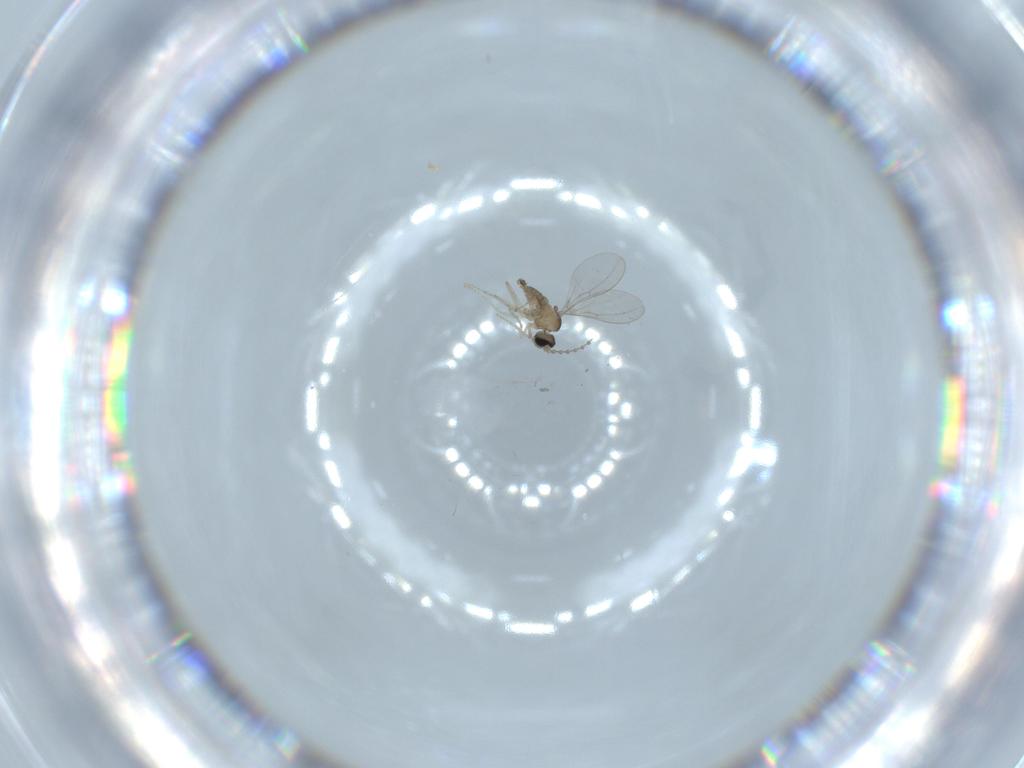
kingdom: Animalia
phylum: Arthropoda
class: Insecta
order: Diptera
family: Cecidomyiidae
